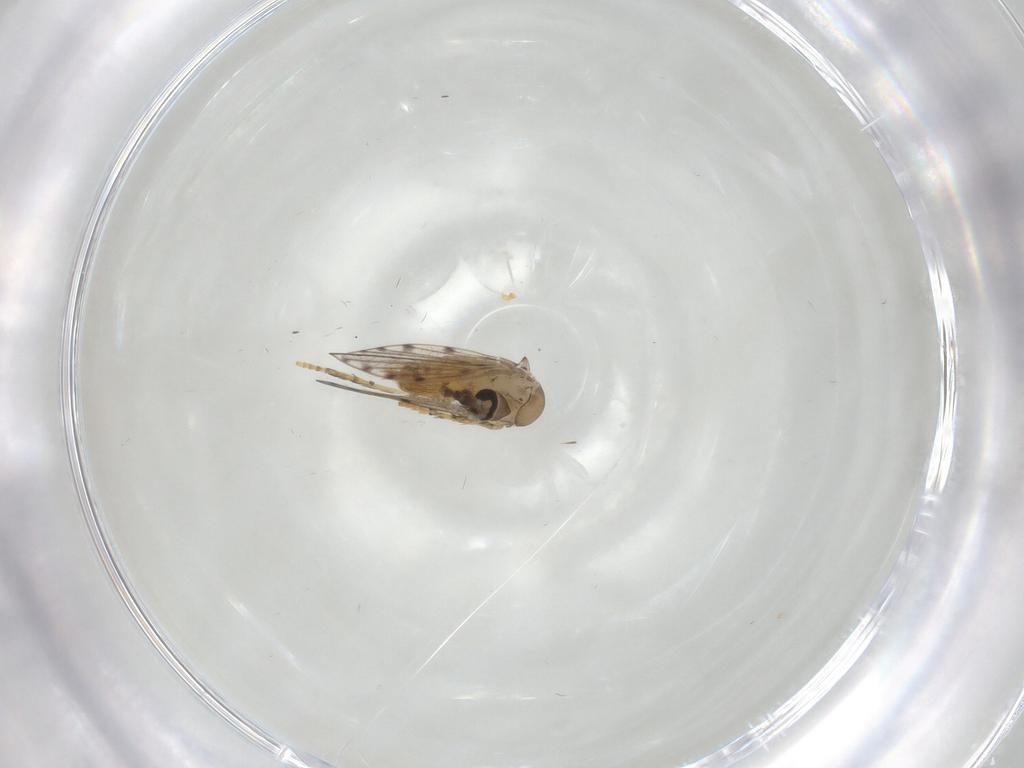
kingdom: Animalia
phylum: Arthropoda
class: Insecta
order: Diptera
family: Psychodidae
